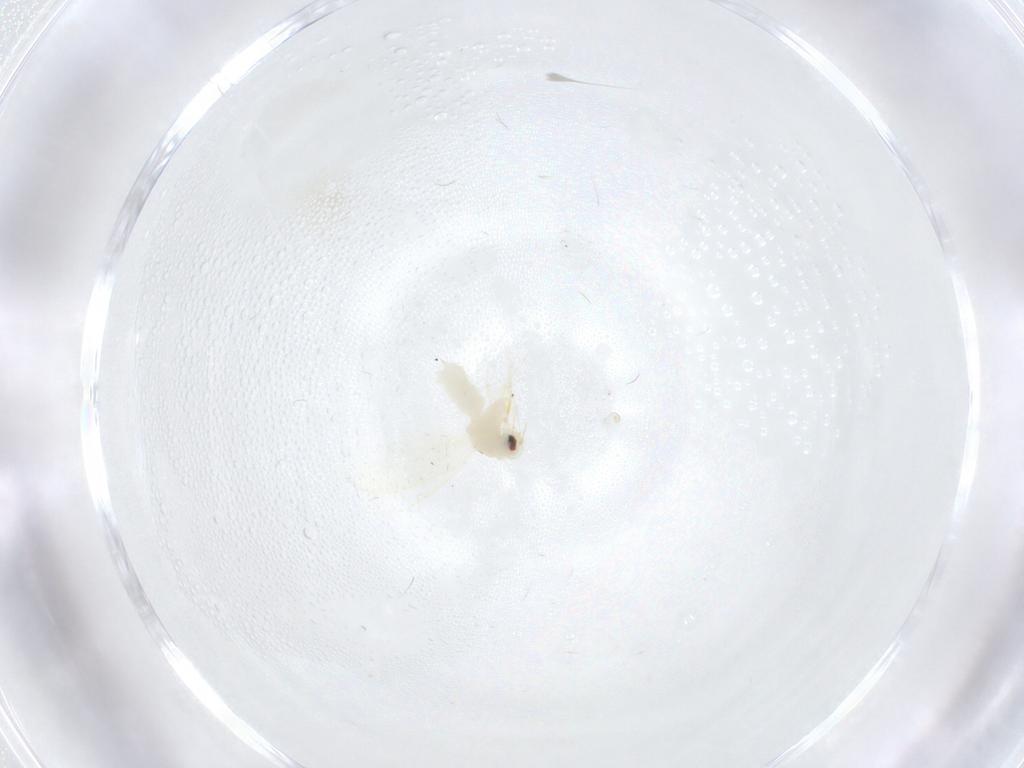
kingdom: Animalia
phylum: Arthropoda
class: Insecta
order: Hemiptera
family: Aleyrodidae
